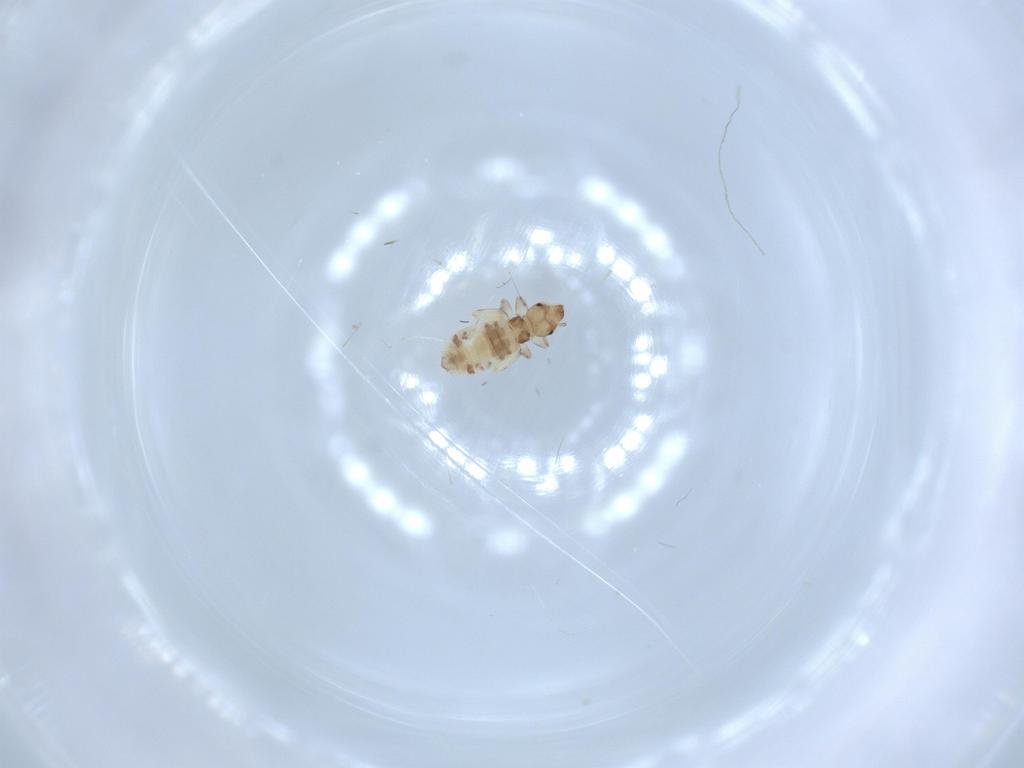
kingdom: Animalia
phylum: Arthropoda
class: Insecta
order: Psocodea
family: Liposcelididae
